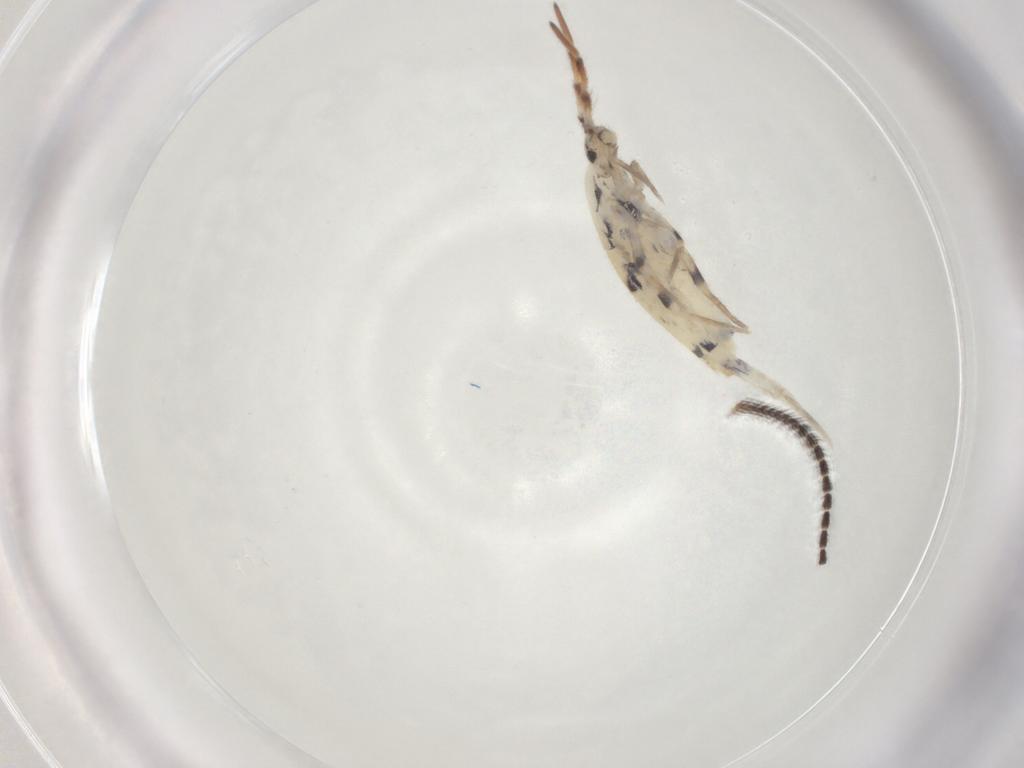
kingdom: Animalia
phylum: Arthropoda
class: Collembola
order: Entomobryomorpha
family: Entomobryidae
